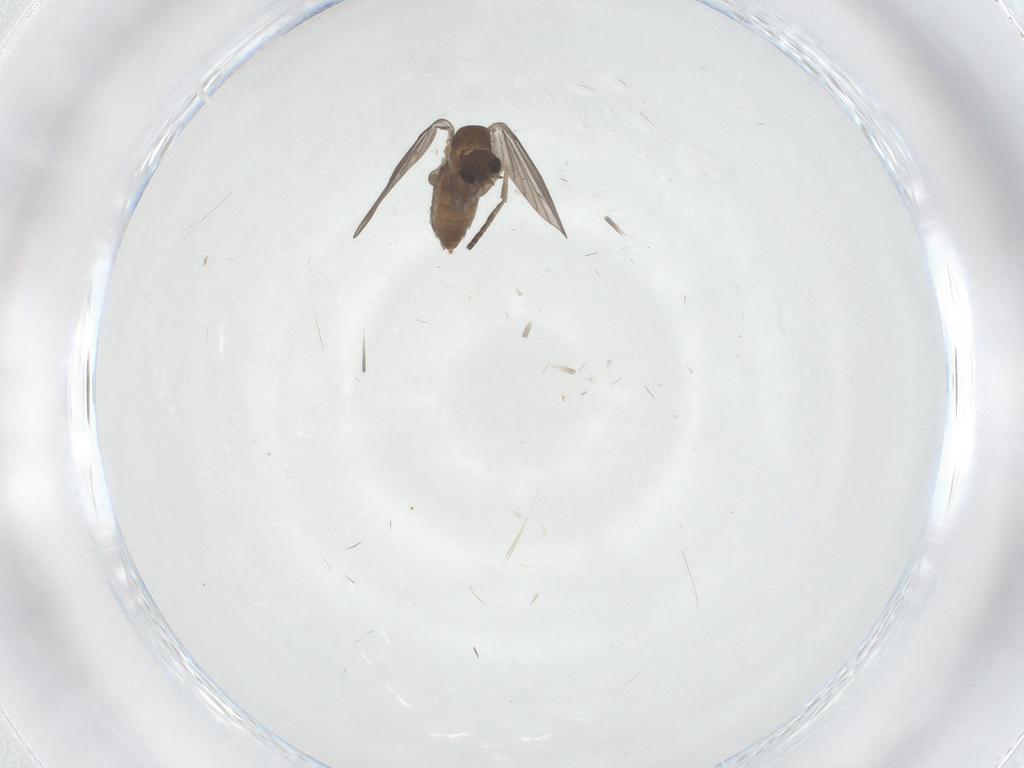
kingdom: Animalia
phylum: Arthropoda
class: Insecta
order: Diptera
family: Psychodidae
